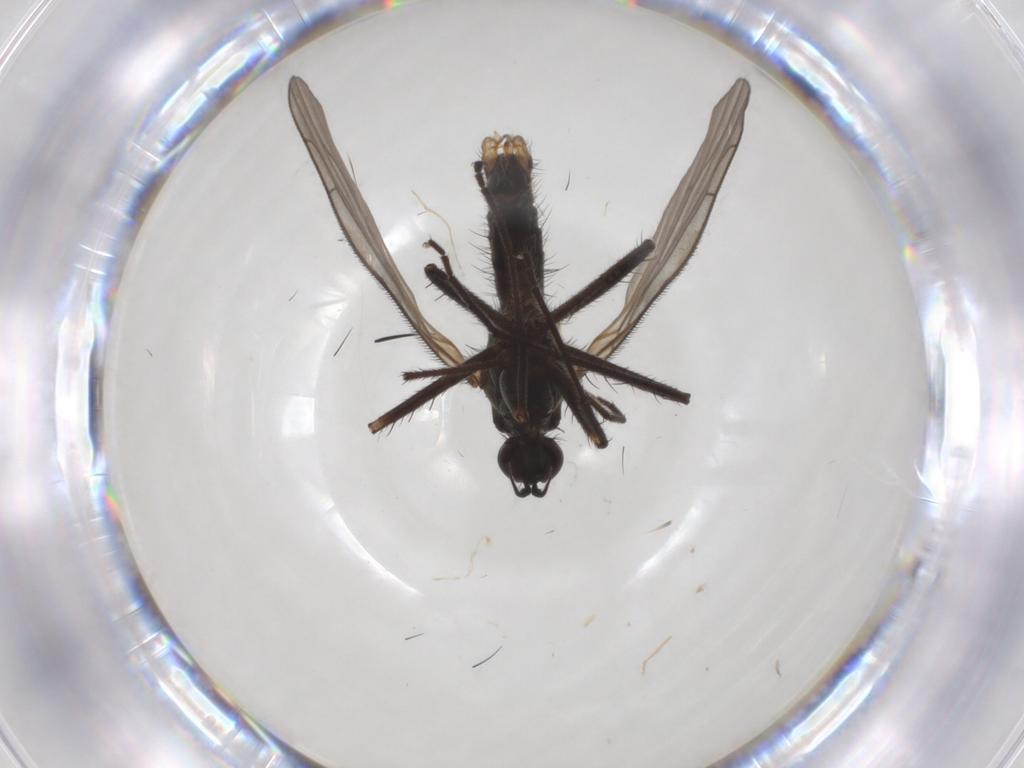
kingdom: Animalia
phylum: Arthropoda
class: Insecta
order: Diptera
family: Empididae
